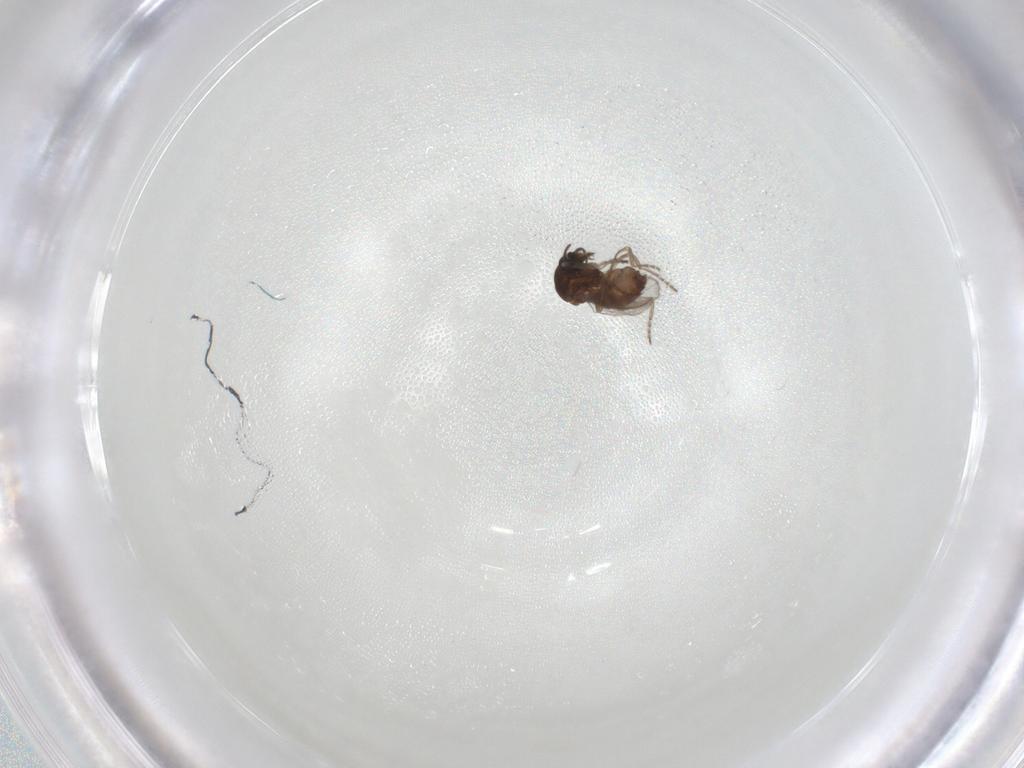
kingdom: Animalia
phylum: Arthropoda
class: Insecta
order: Diptera
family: Ceratopogonidae
